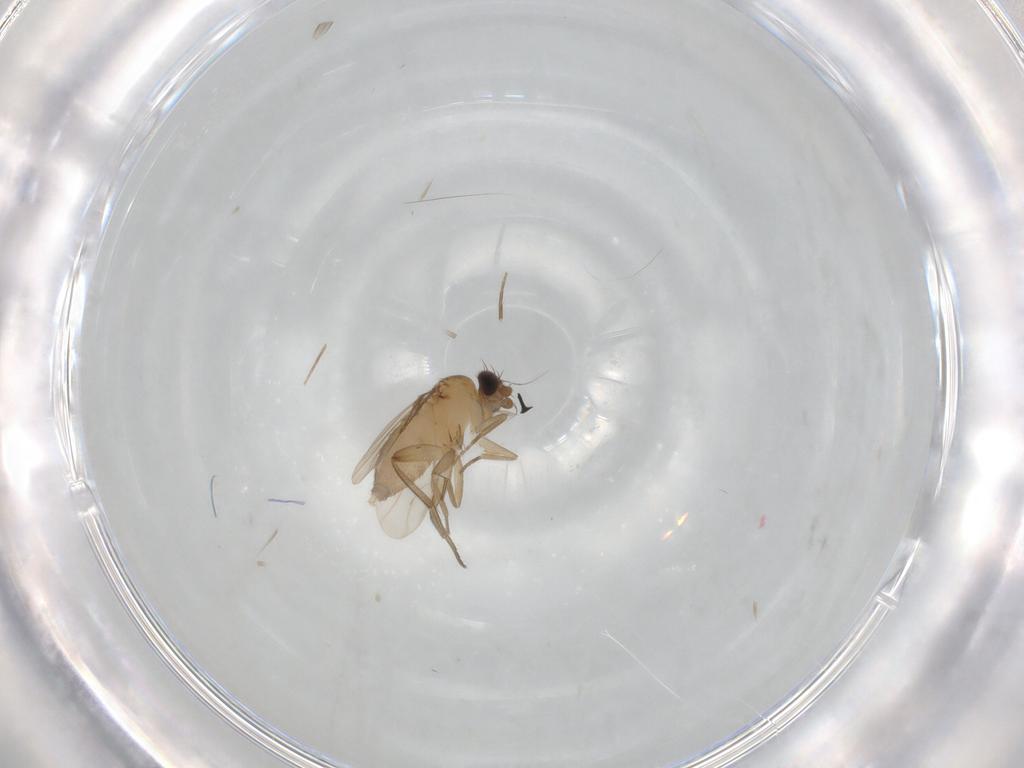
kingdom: Animalia
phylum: Arthropoda
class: Insecta
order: Diptera
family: Phoridae
